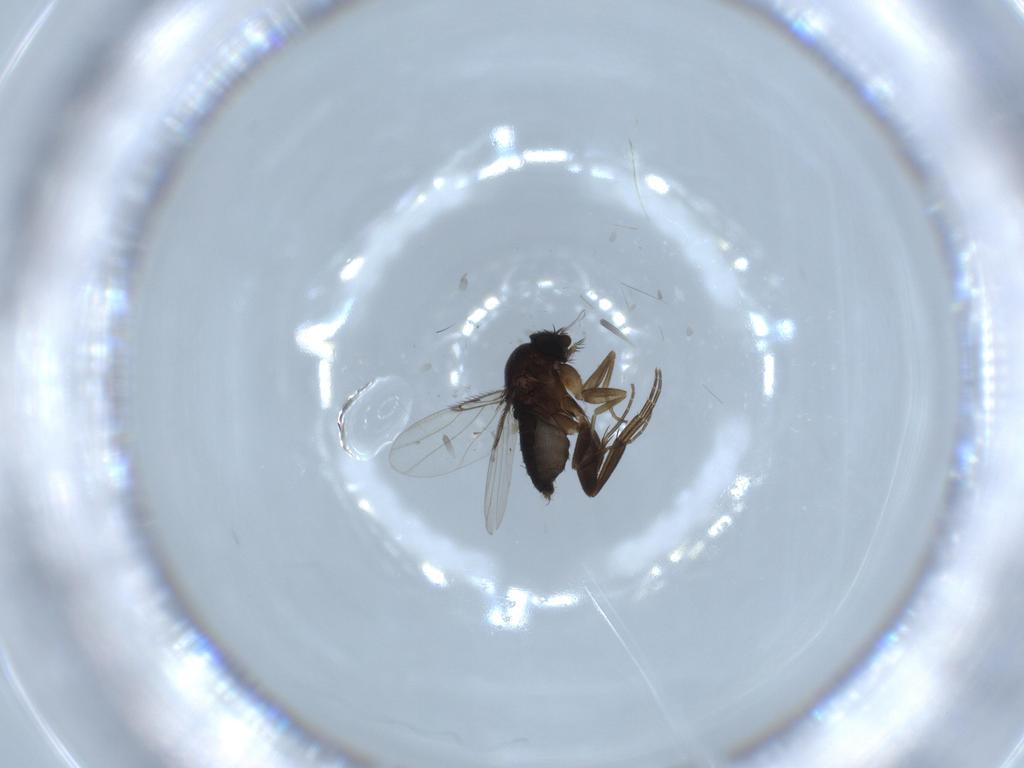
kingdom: Animalia
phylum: Arthropoda
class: Insecta
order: Diptera
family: Phoridae
